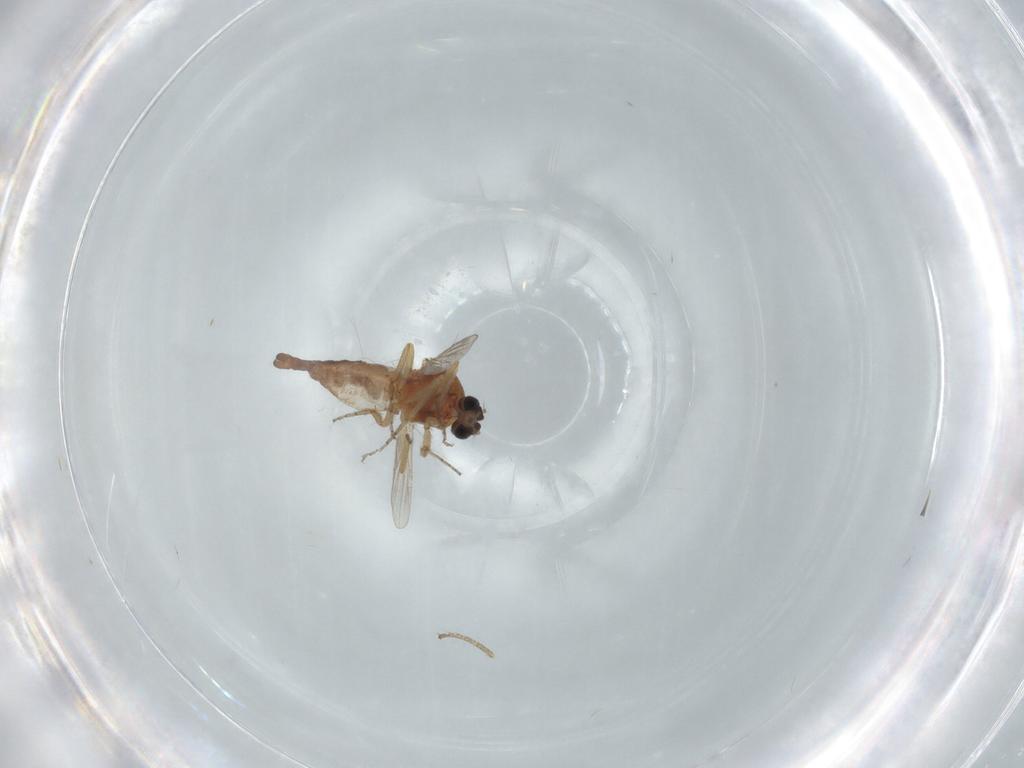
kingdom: Animalia
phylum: Arthropoda
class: Insecta
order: Diptera
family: Ceratopogonidae
